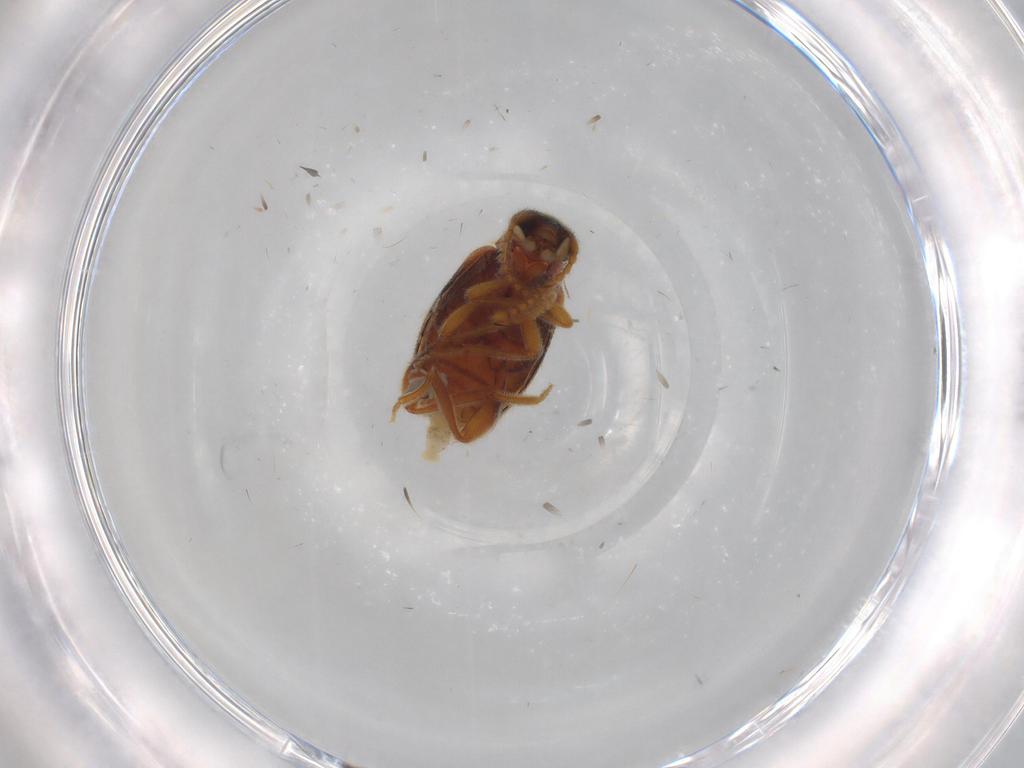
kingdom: Animalia
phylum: Arthropoda
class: Insecta
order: Coleoptera
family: Aderidae
